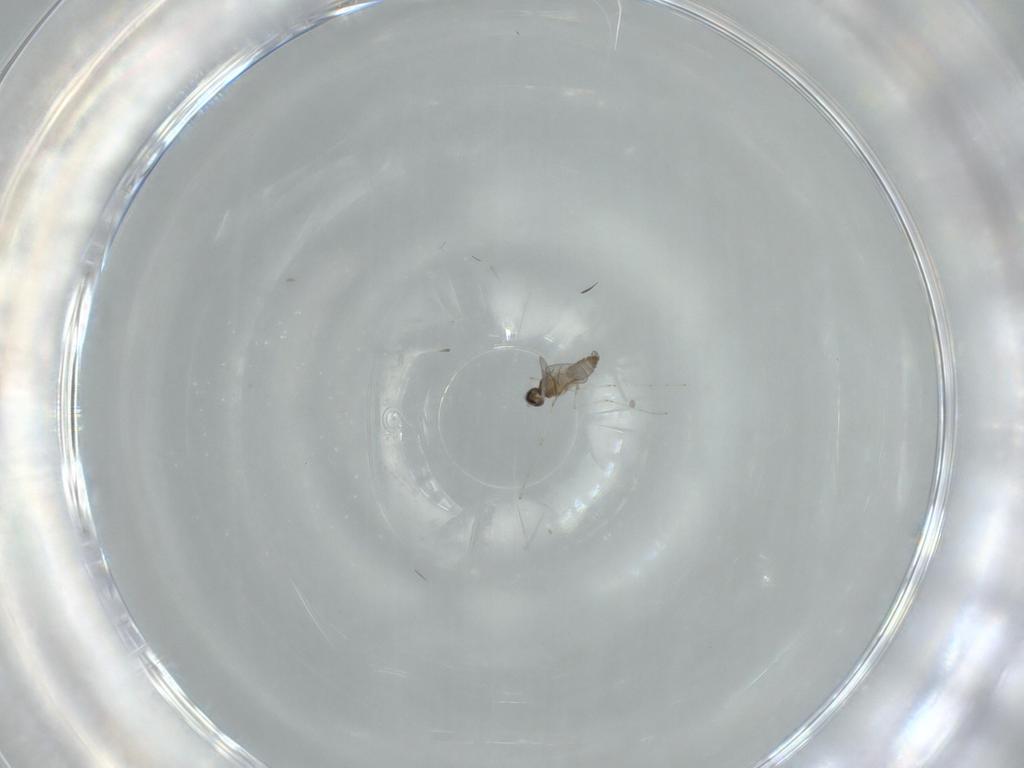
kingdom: Animalia
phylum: Arthropoda
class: Insecta
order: Diptera
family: Cecidomyiidae
